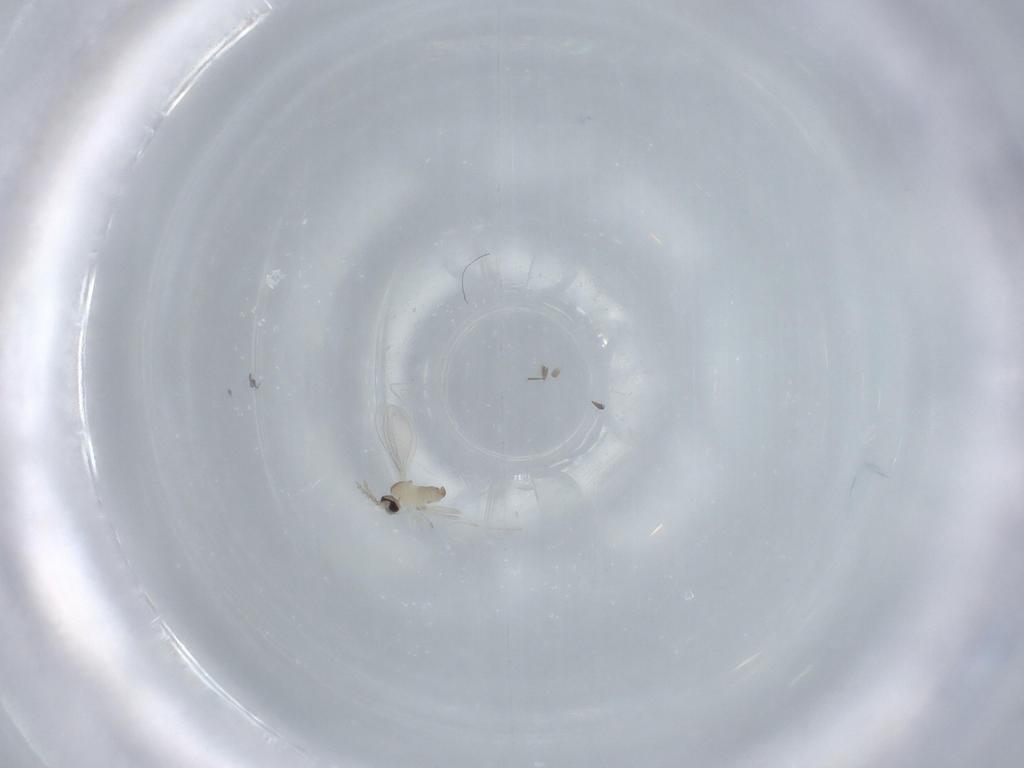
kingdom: Animalia
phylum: Arthropoda
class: Insecta
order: Diptera
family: Cecidomyiidae
